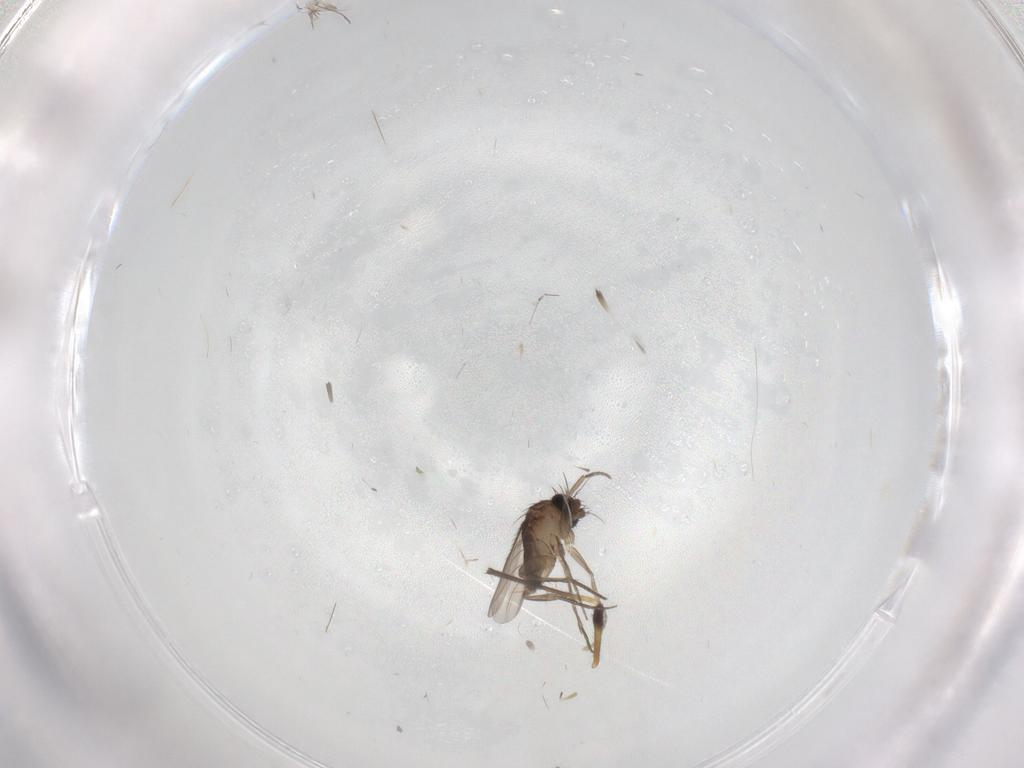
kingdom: Animalia
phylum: Arthropoda
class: Insecta
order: Diptera
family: Phoridae
